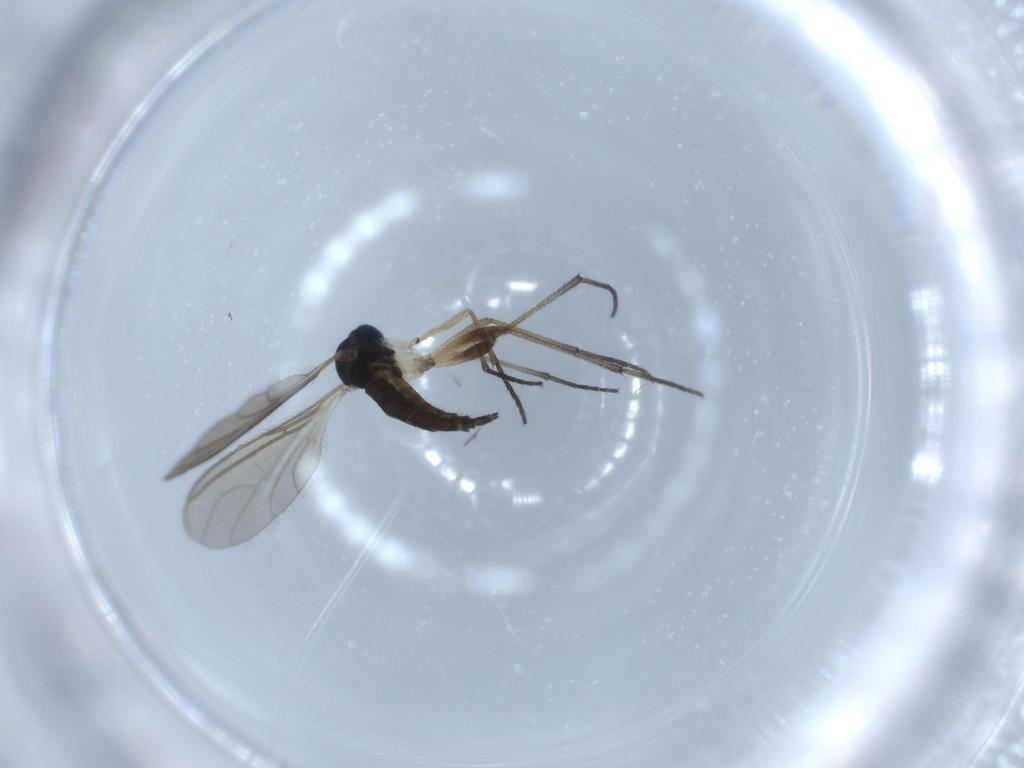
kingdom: Animalia
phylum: Arthropoda
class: Insecta
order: Diptera
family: Sciaridae
